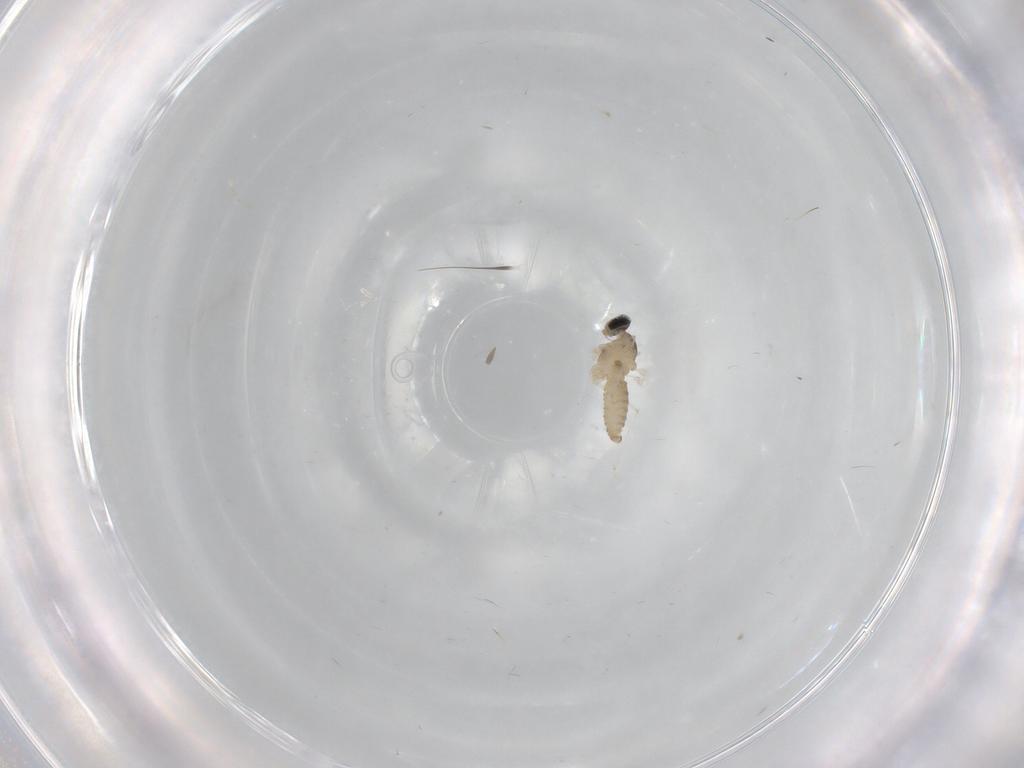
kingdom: Animalia
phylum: Arthropoda
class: Insecta
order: Diptera
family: Cecidomyiidae
